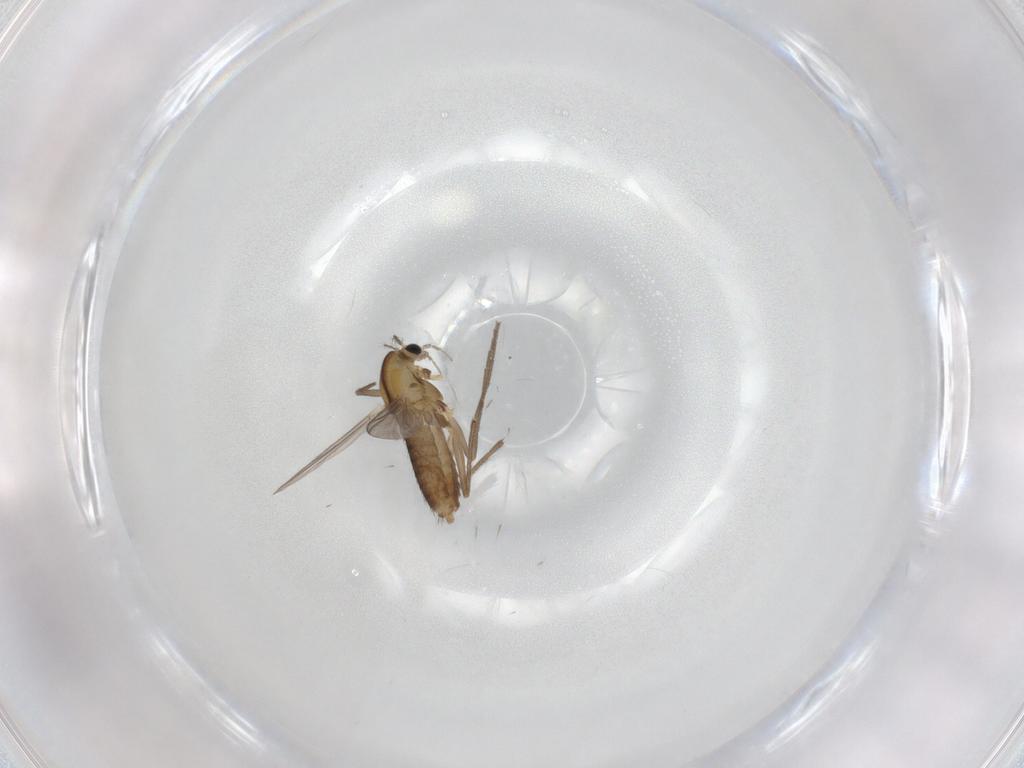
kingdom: Animalia
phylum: Arthropoda
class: Insecta
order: Diptera
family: Chironomidae
